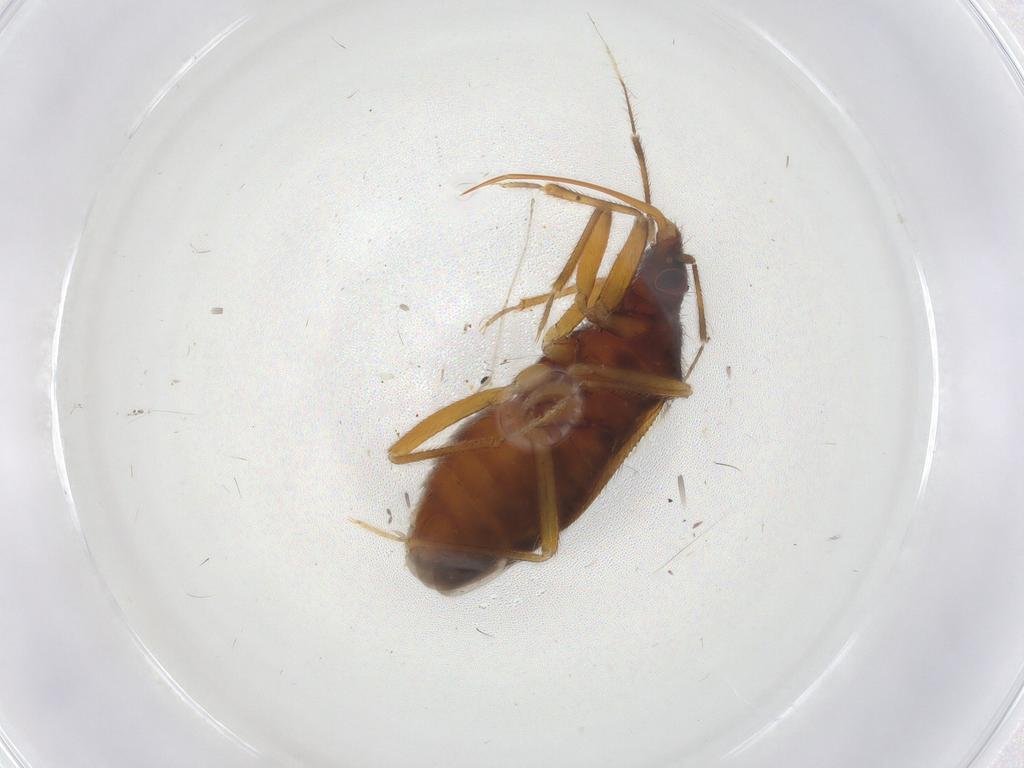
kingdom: Animalia
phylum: Arthropoda
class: Insecta
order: Hemiptera
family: Anthocoridae
